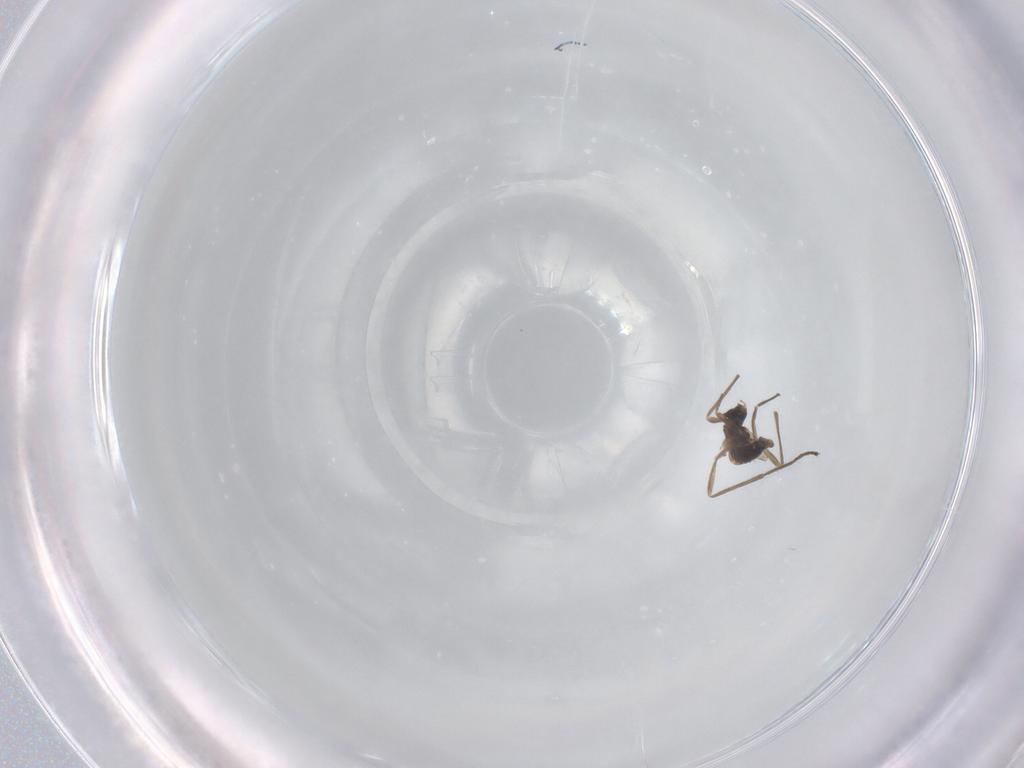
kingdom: Animalia
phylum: Arthropoda
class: Insecta
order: Diptera
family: Cecidomyiidae
